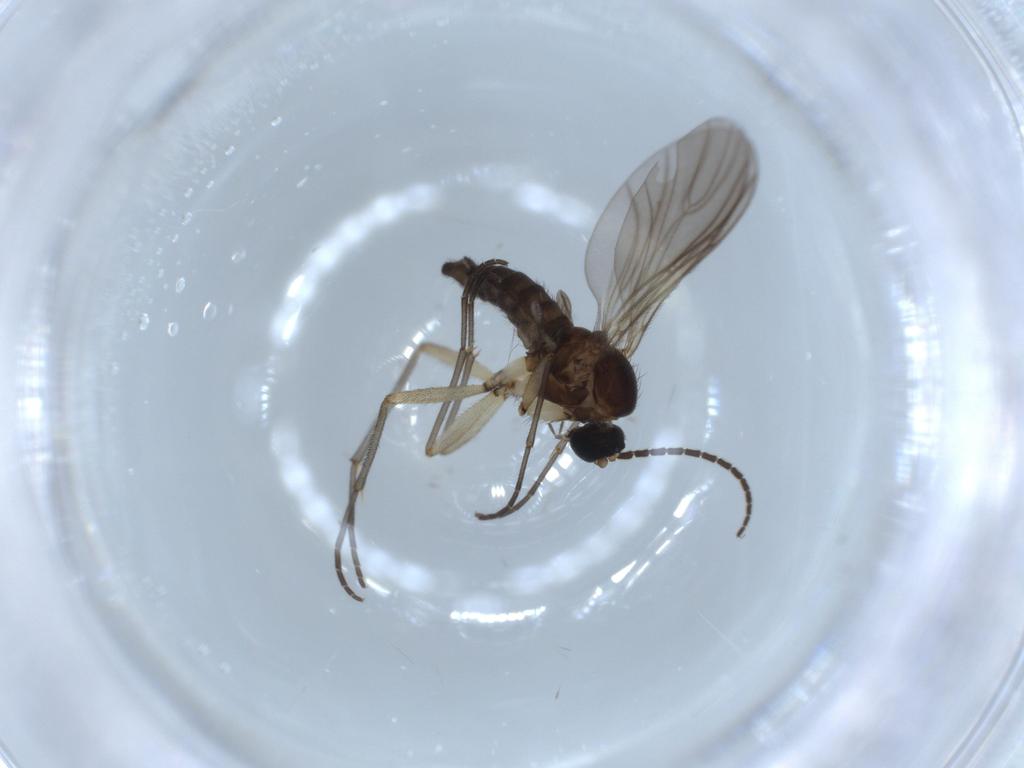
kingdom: Animalia
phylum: Arthropoda
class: Insecta
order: Diptera
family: Sciaridae
